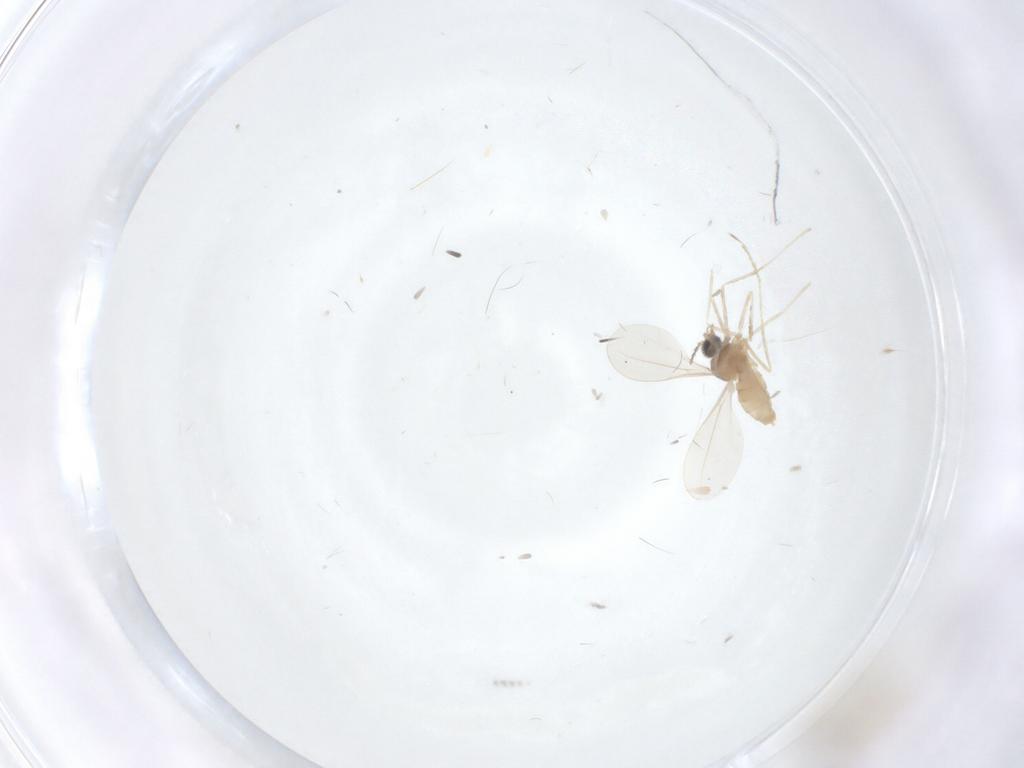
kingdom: Animalia
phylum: Arthropoda
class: Insecta
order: Diptera
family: Cecidomyiidae
